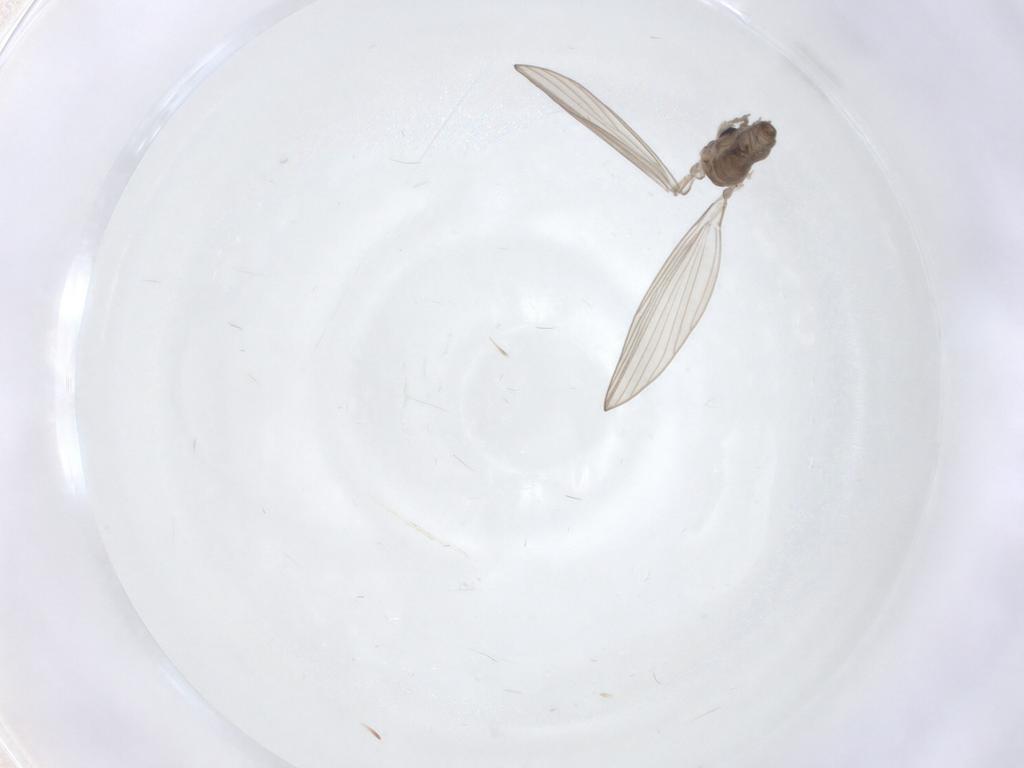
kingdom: Animalia
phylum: Arthropoda
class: Insecta
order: Diptera
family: Psychodidae
